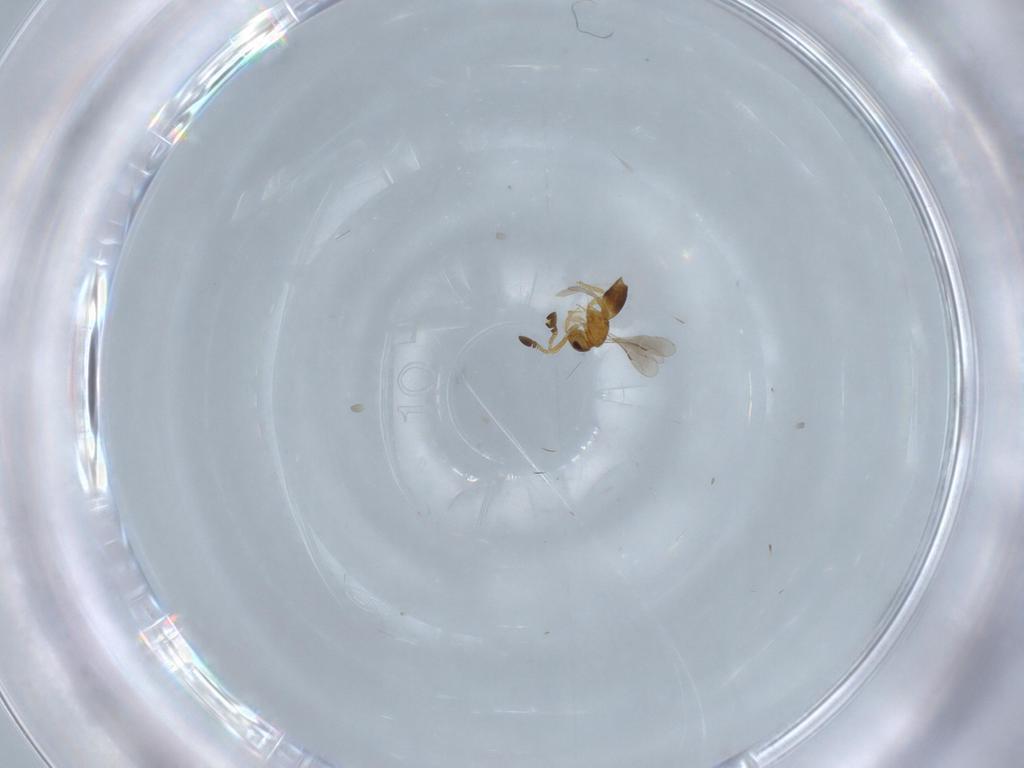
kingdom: Animalia
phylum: Arthropoda
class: Insecta
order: Hymenoptera
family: Ceraphronidae
